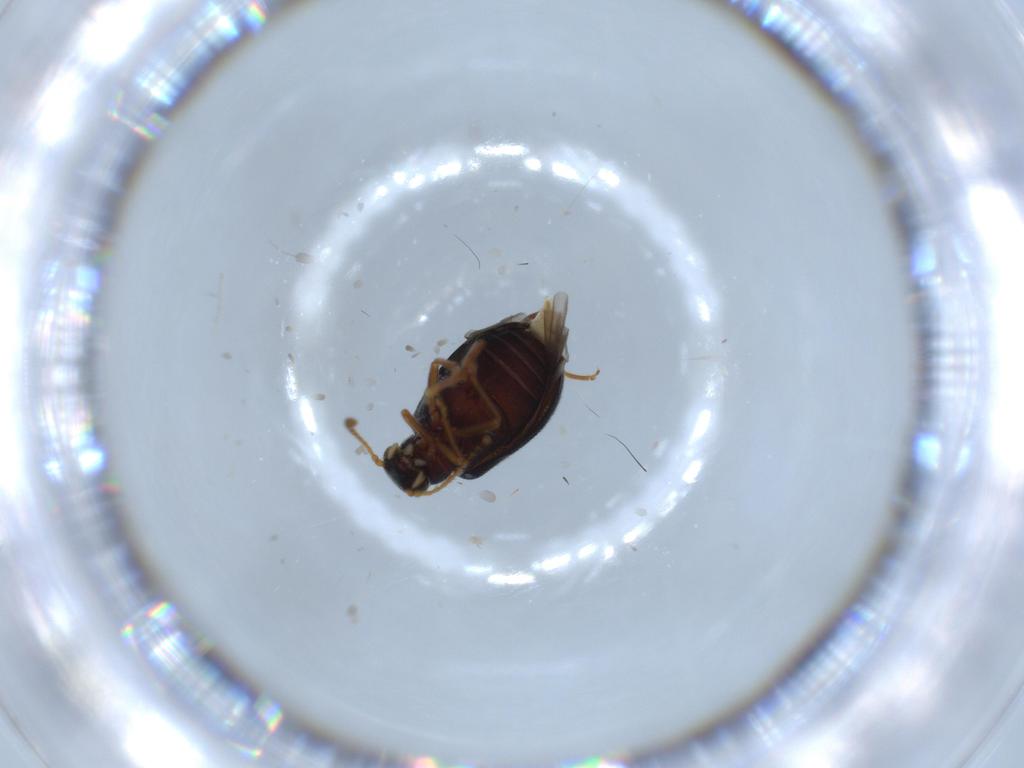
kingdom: Animalia
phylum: Arthropoda
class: Insecta
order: Coleoptera
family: Aderidae
